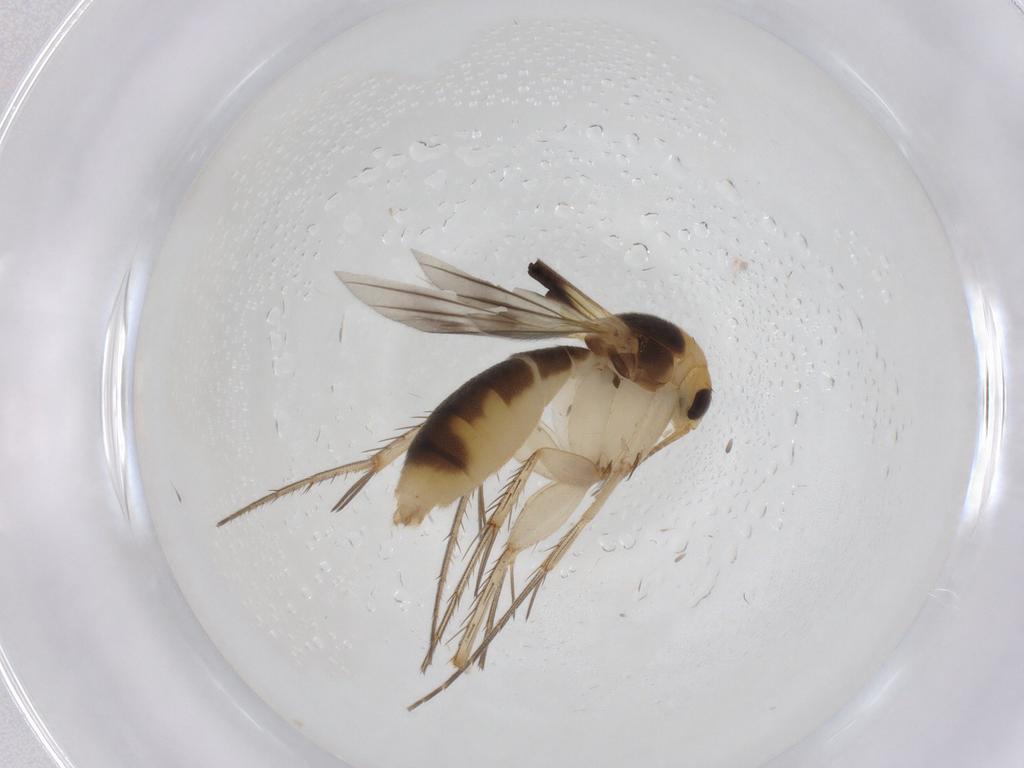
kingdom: Animalia
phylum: Arthropoda
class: Insecta
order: Diptera
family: Mycetophilidae
